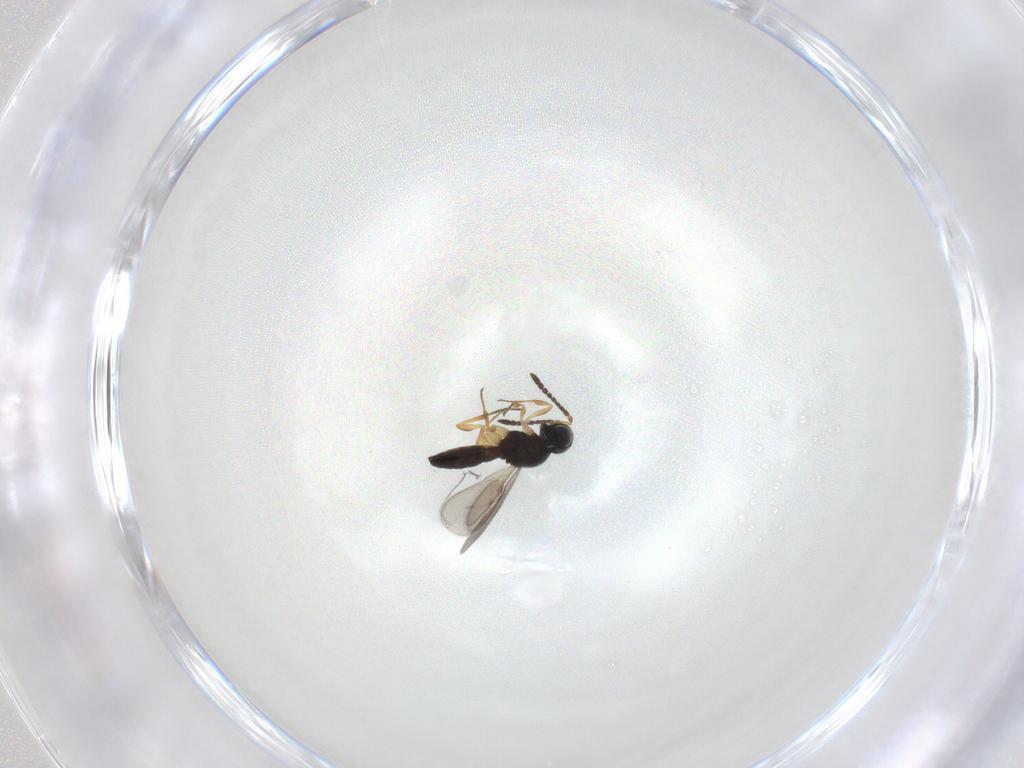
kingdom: Animalia
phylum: Arthropoda
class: Insecta
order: Hymenoptera
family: Scelionidae
